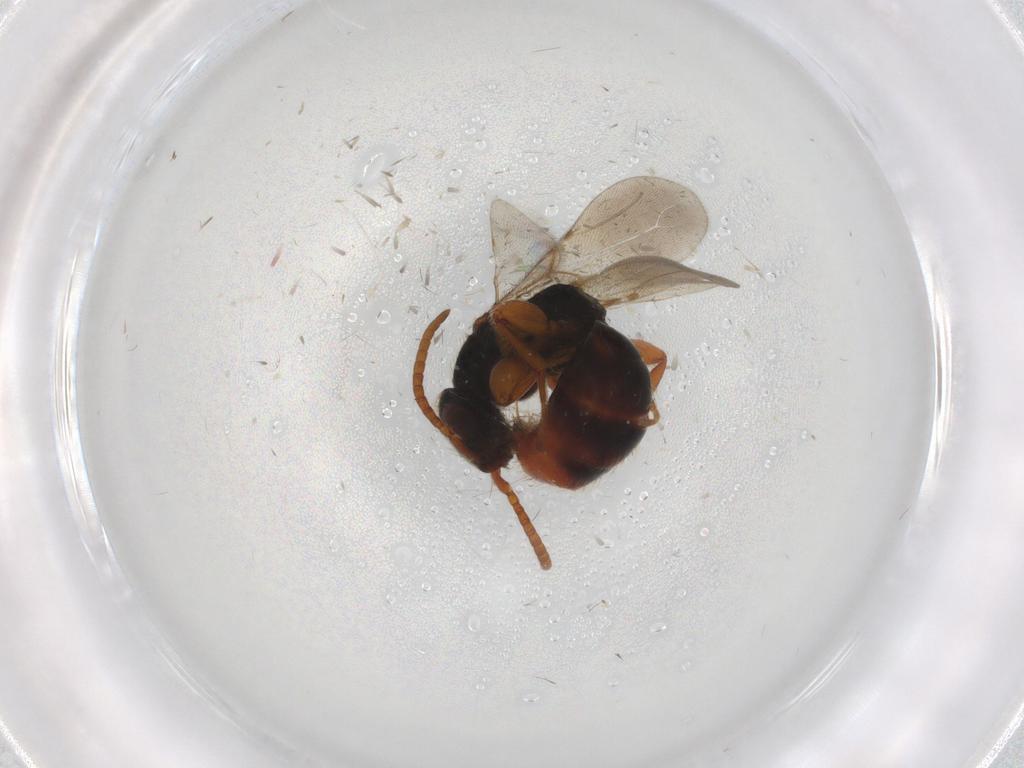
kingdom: Animalia
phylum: Arthropoda
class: Insecta
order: Hymenoptera
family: Bethylidae
